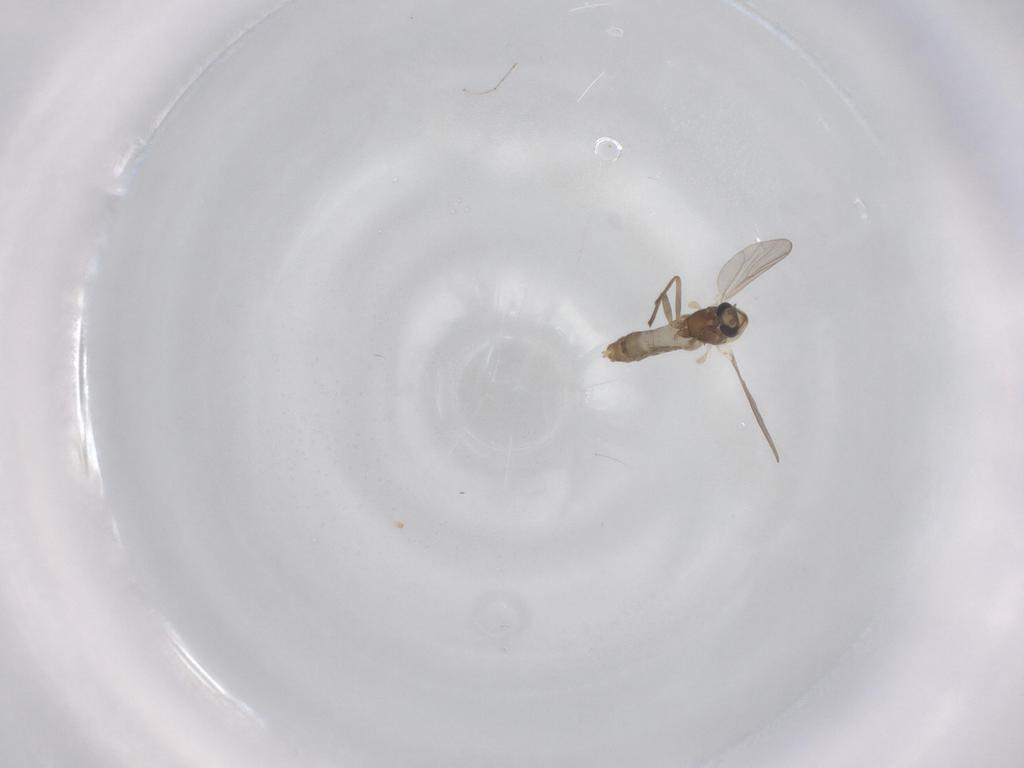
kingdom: Animalia
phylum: Arthropoda
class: Insecta
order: Diptera
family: Chironomidae
